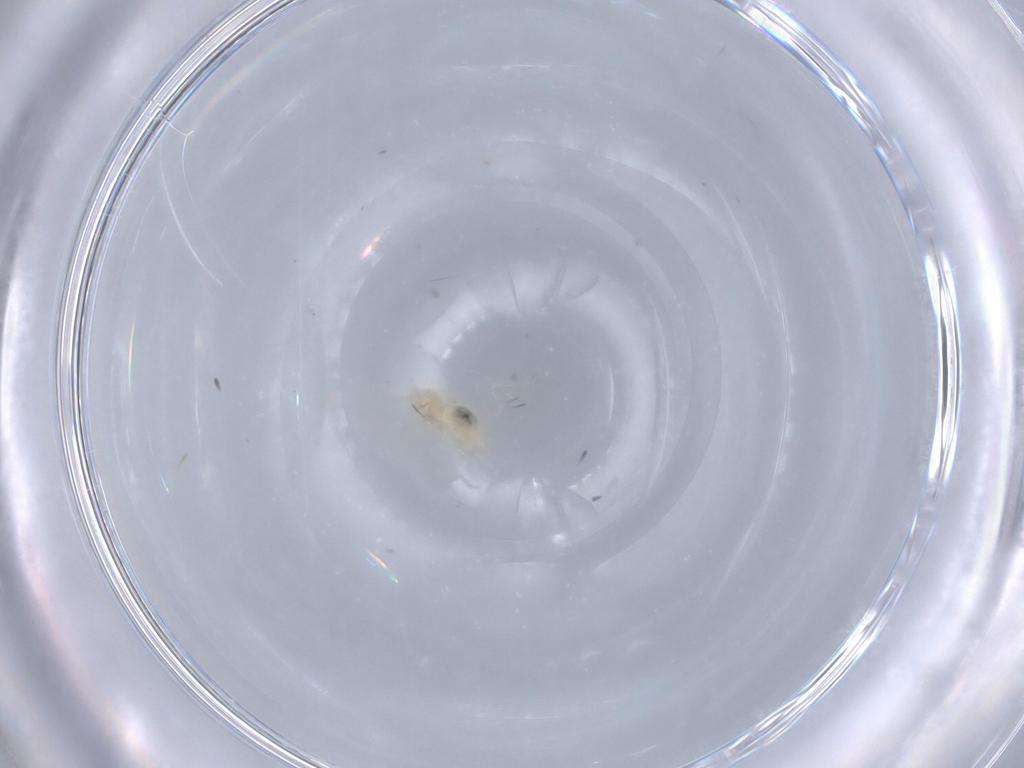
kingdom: Animalia
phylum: Arthropoda
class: Insecta
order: Diptera
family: Cecidomyiidae
